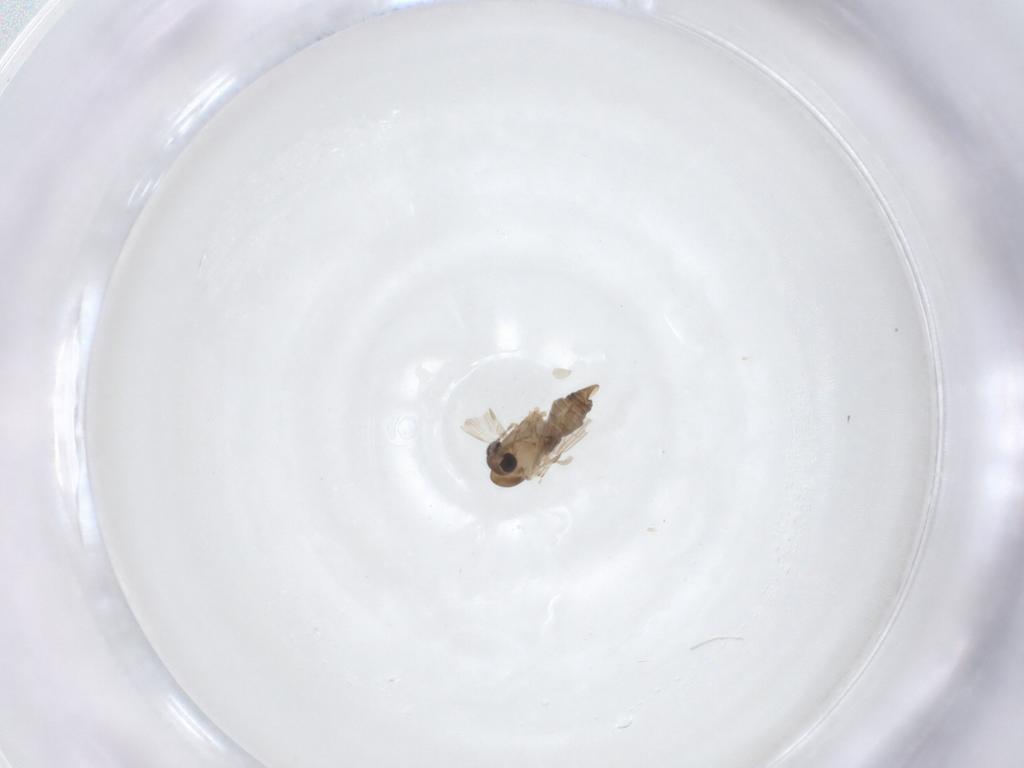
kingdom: Animalia
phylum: Arthropoda
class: Insecta
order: Diptera
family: Psychodidae
